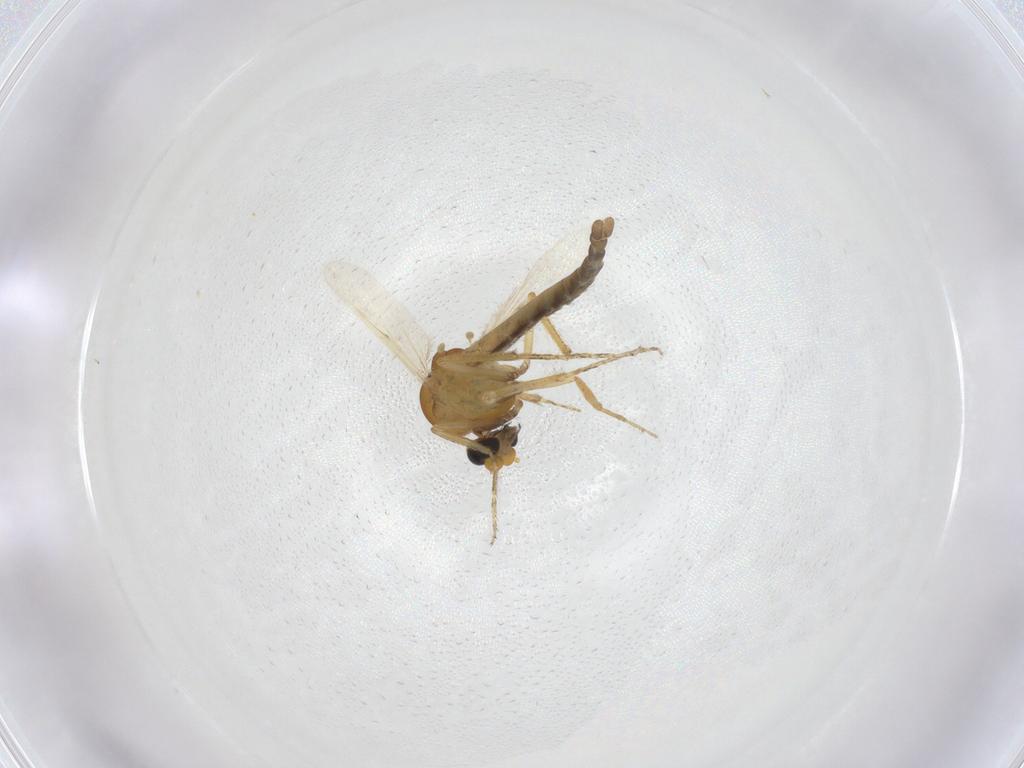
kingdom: Animalia
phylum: Arthropoda
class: Insecta
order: Diptera
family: Ceratopogonidae
